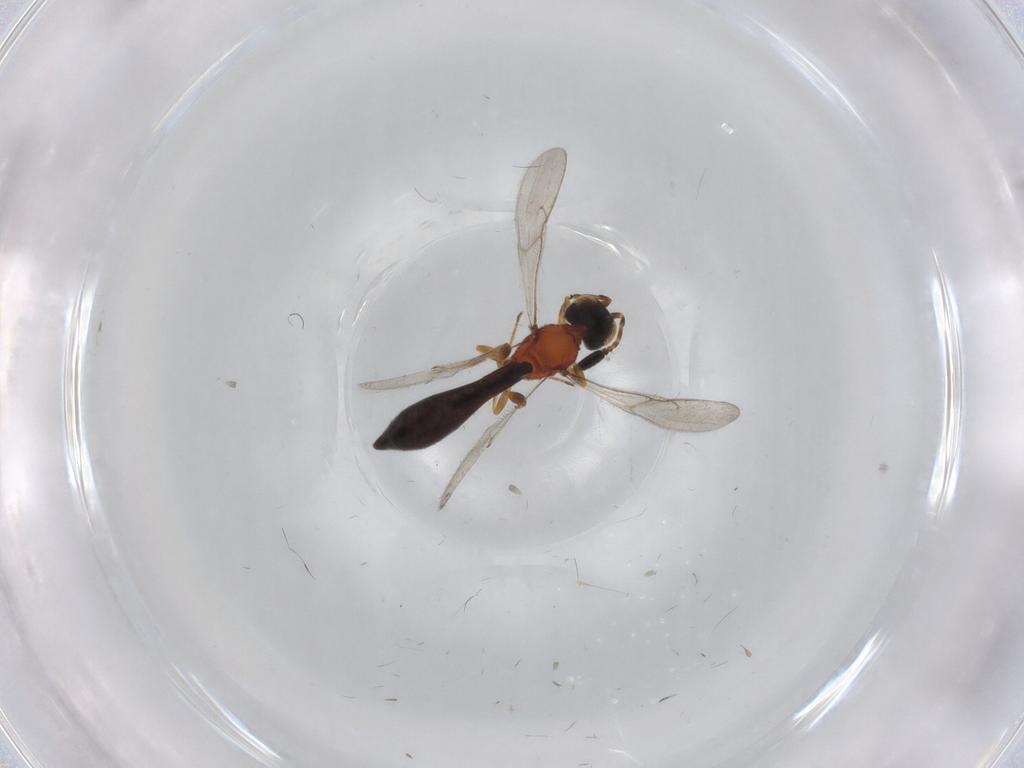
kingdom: Animalia
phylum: Arthropoda
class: Insecta
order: Hymenoptera
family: Scelionidae
